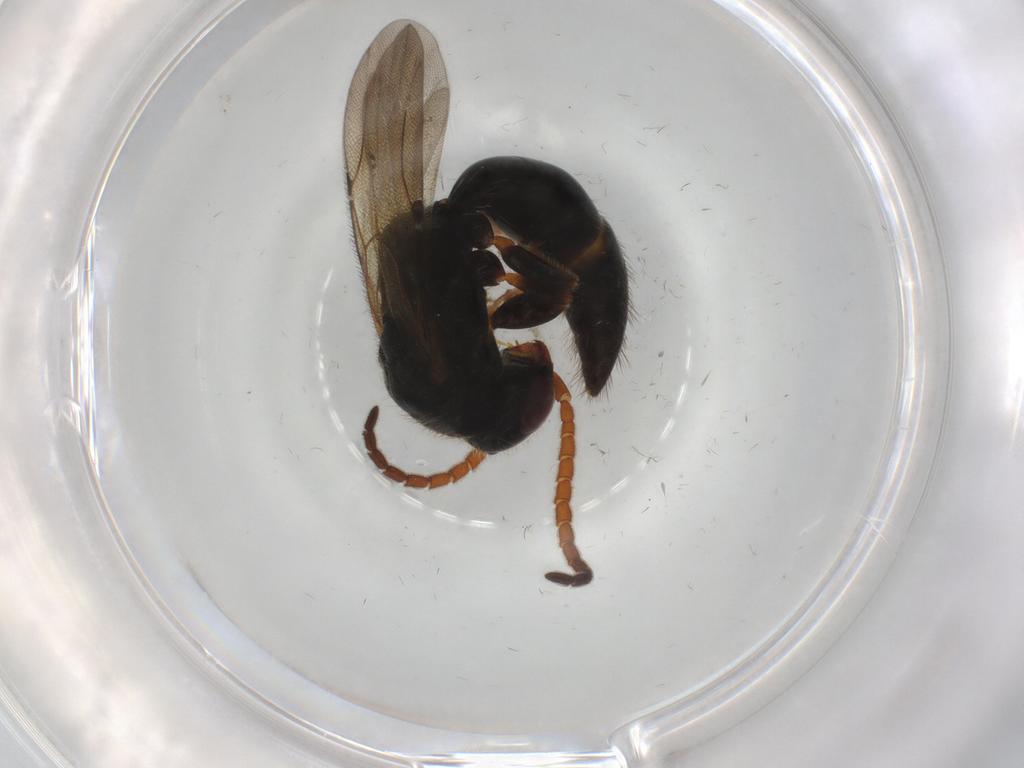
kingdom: Animalia
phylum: Arthropoda
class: Insecta
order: Hymenoptera
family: Bethylidae
